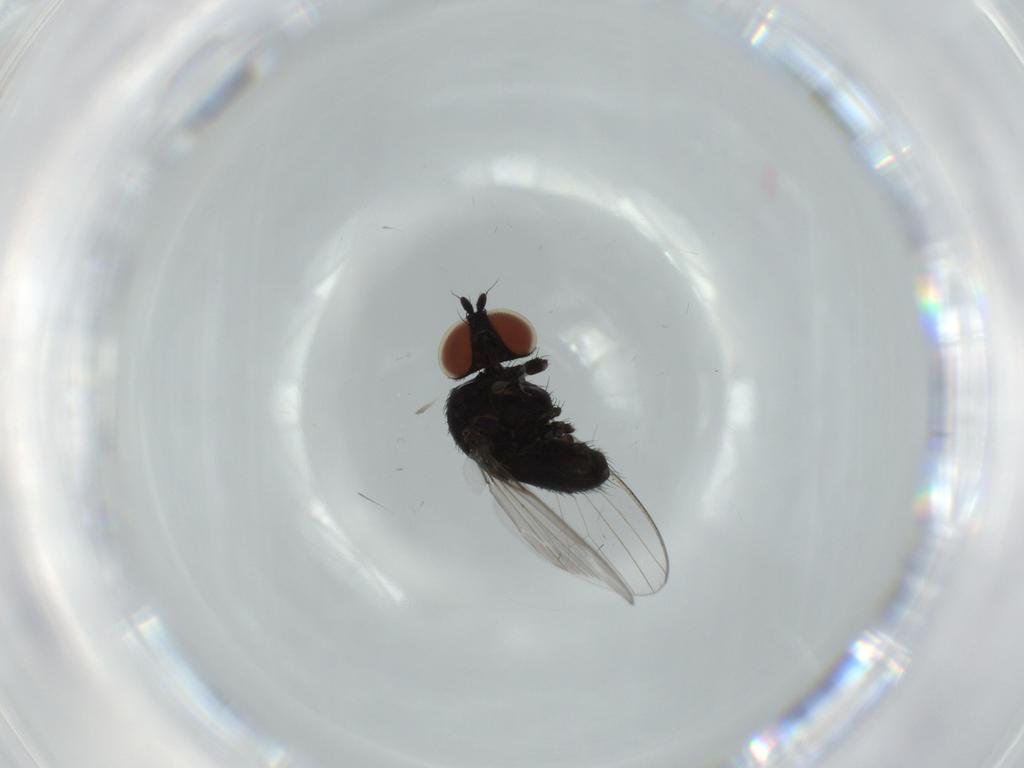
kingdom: Animalia
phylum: Arthropoda
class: Insecta
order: Diptera
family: Milichiidae
